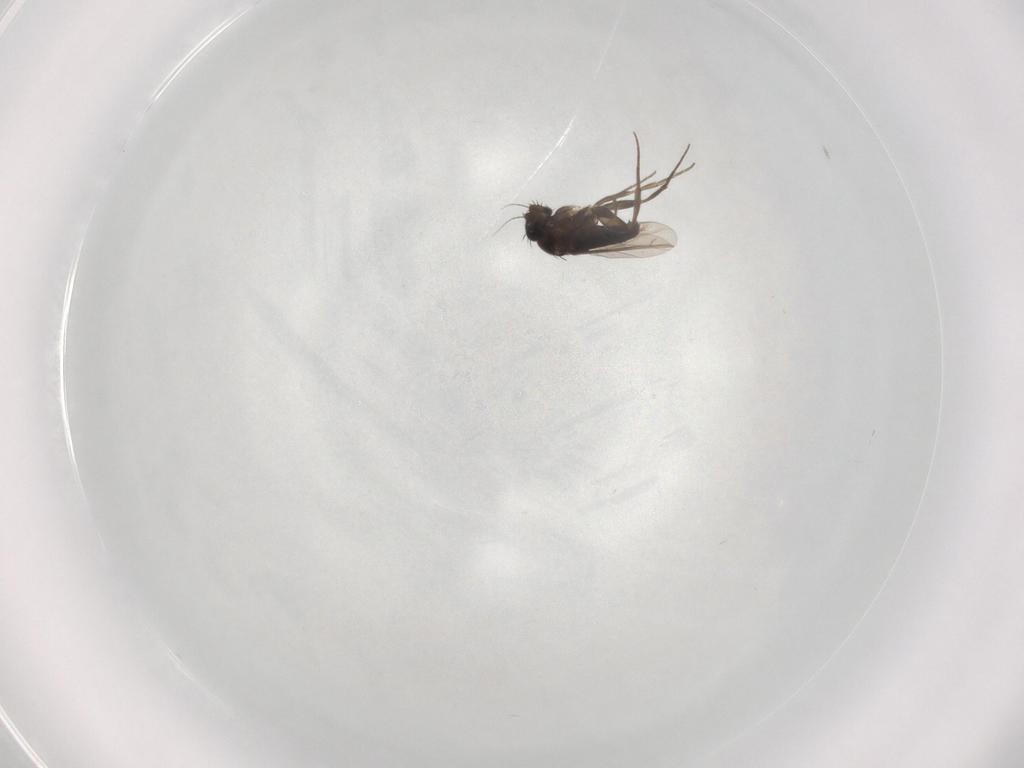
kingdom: Animalia
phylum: Arthropoda
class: Insecta
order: Diptera
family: Phoridae
